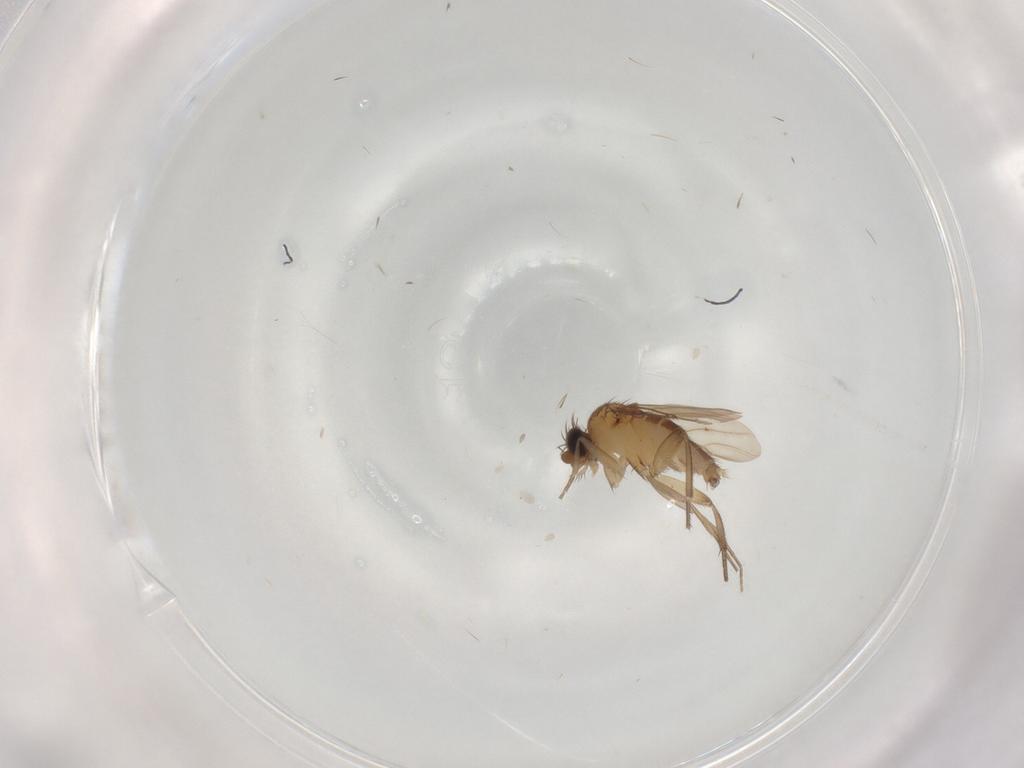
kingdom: Animalia
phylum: Arthropoda
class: Insecta
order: Diptera
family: Phoridae
